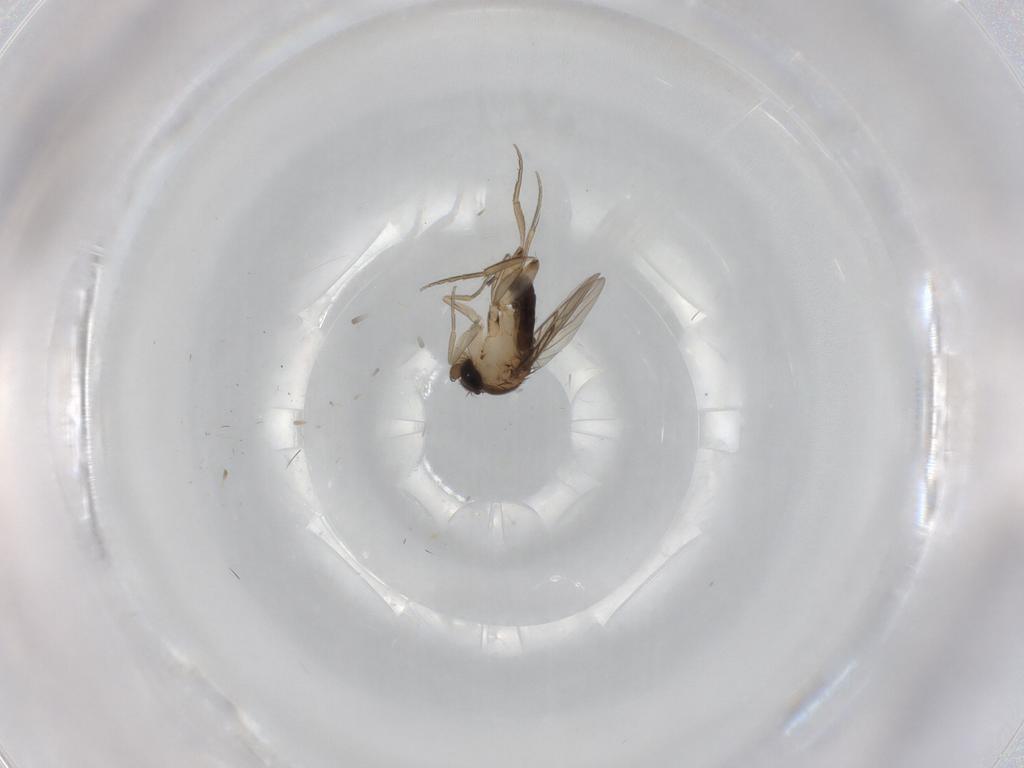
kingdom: Animalia
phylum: Arthropoda
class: Insecta
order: Diptera
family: Phoridae
